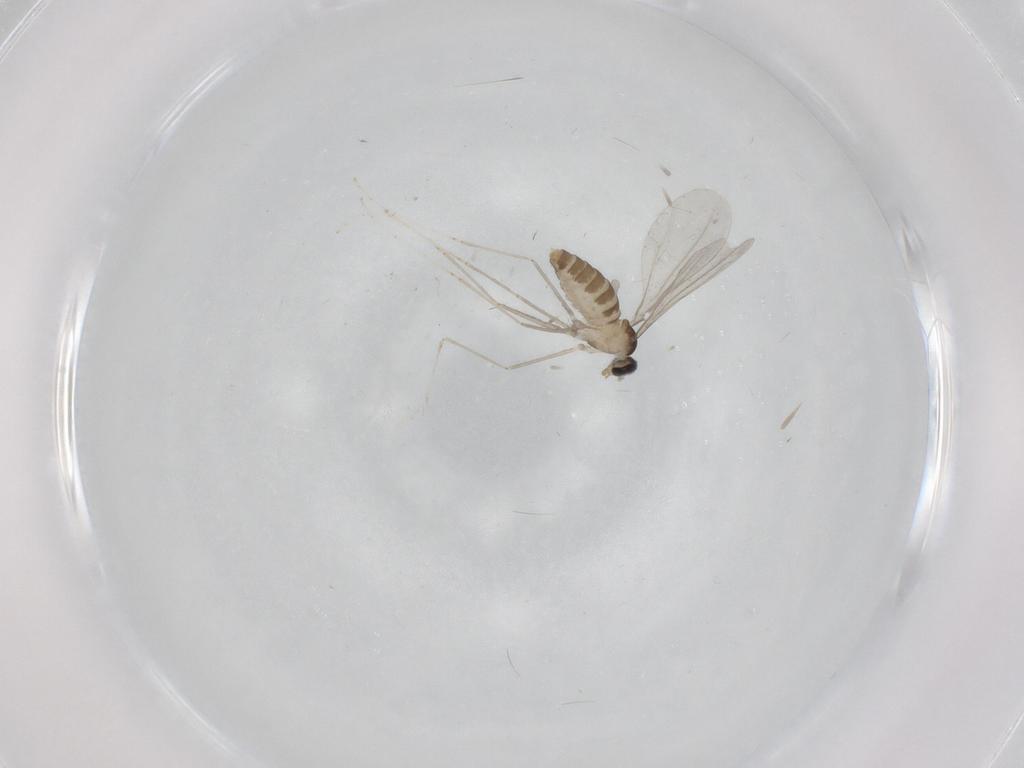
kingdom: Animalia
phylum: Arthropoda
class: Insecta
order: Diptera
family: Cecidomyiidae
